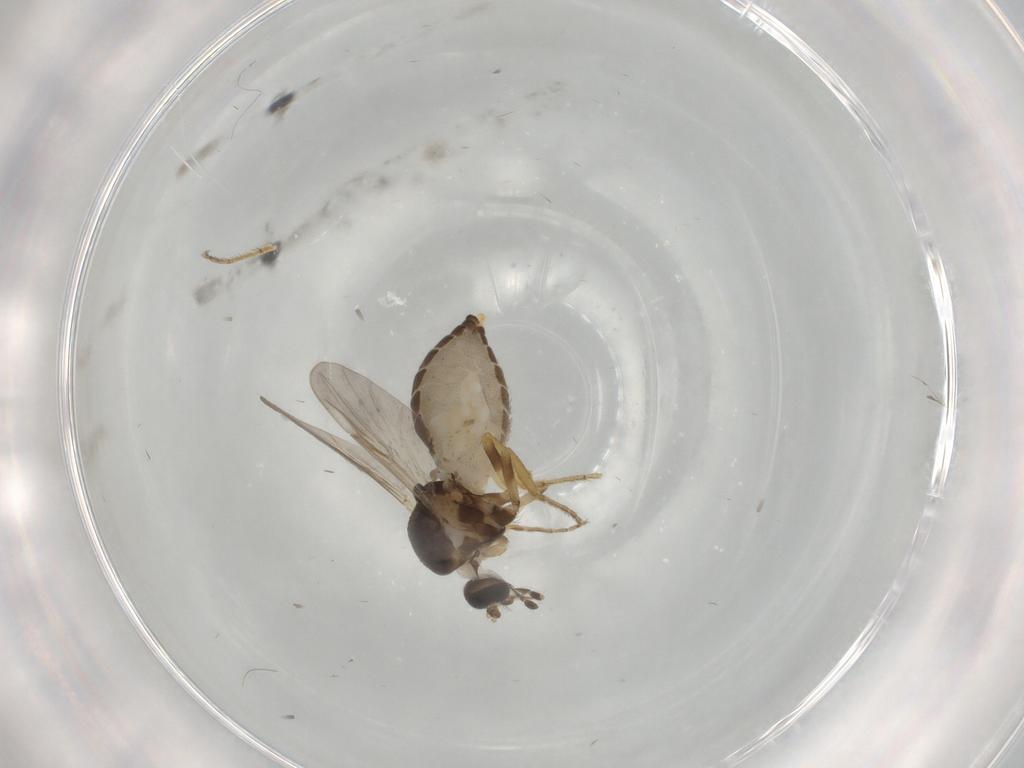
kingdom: Animalia
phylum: Arthropoda
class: Insecta
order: Diptera
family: Ceratopogonidae
